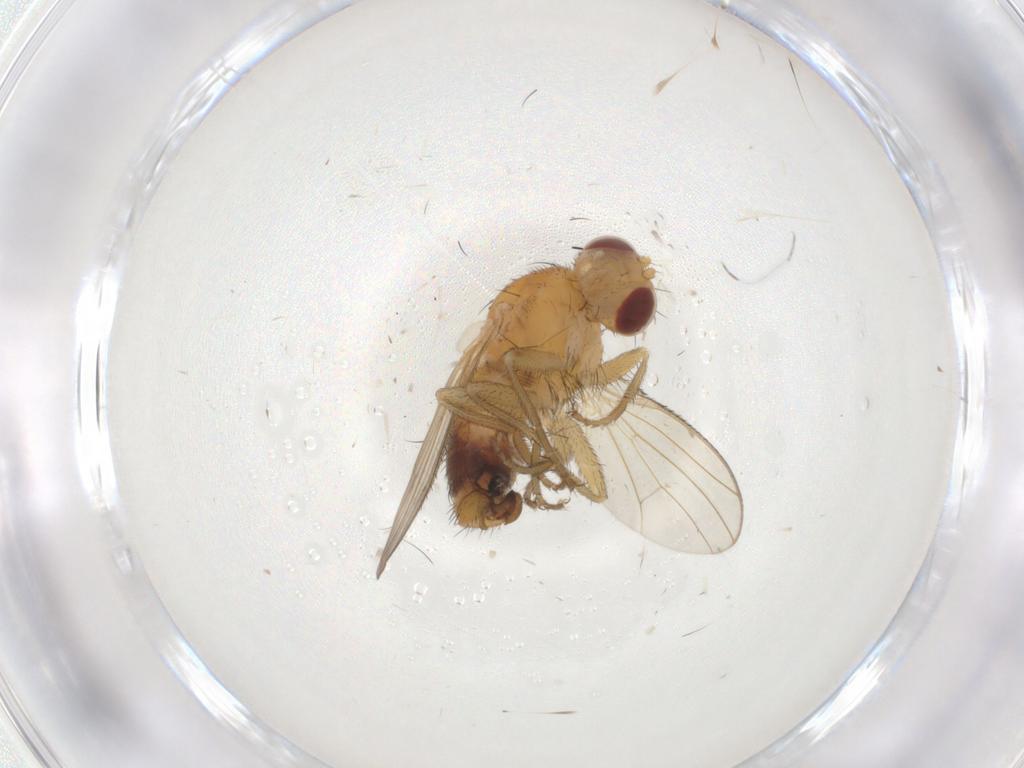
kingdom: Animalia
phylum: Arthropoda
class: Insecta
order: Diptera
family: Heleomyzidae
